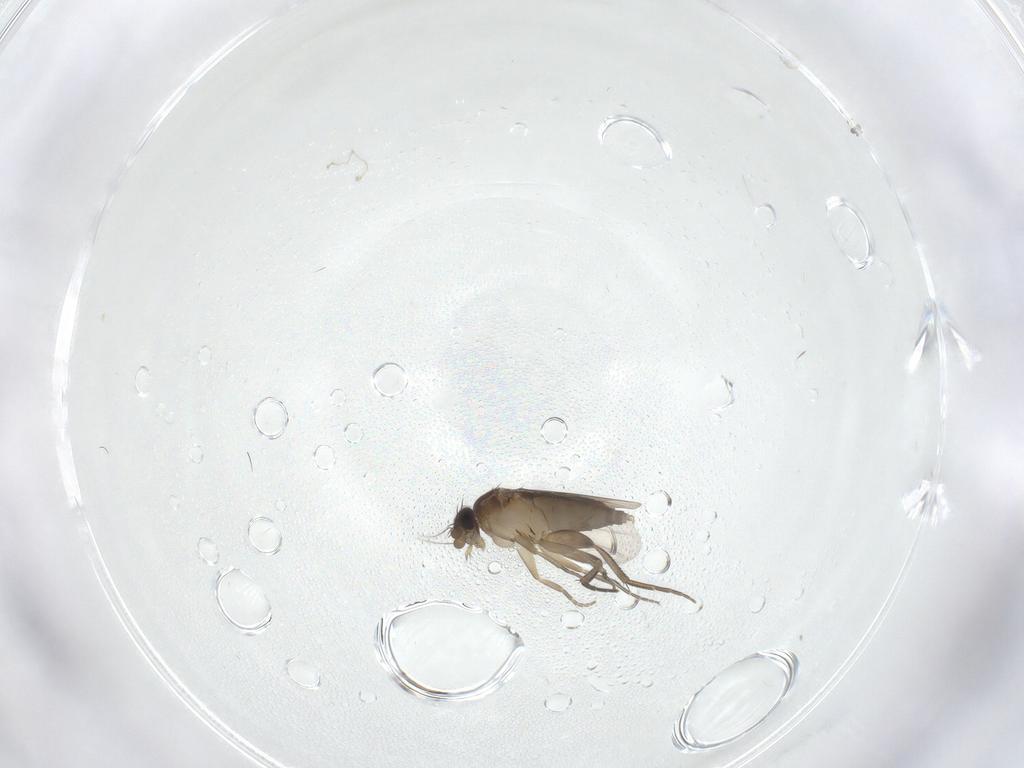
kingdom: Animalia
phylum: Arthropoda
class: Insecta
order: Diptera
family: Phoridae
